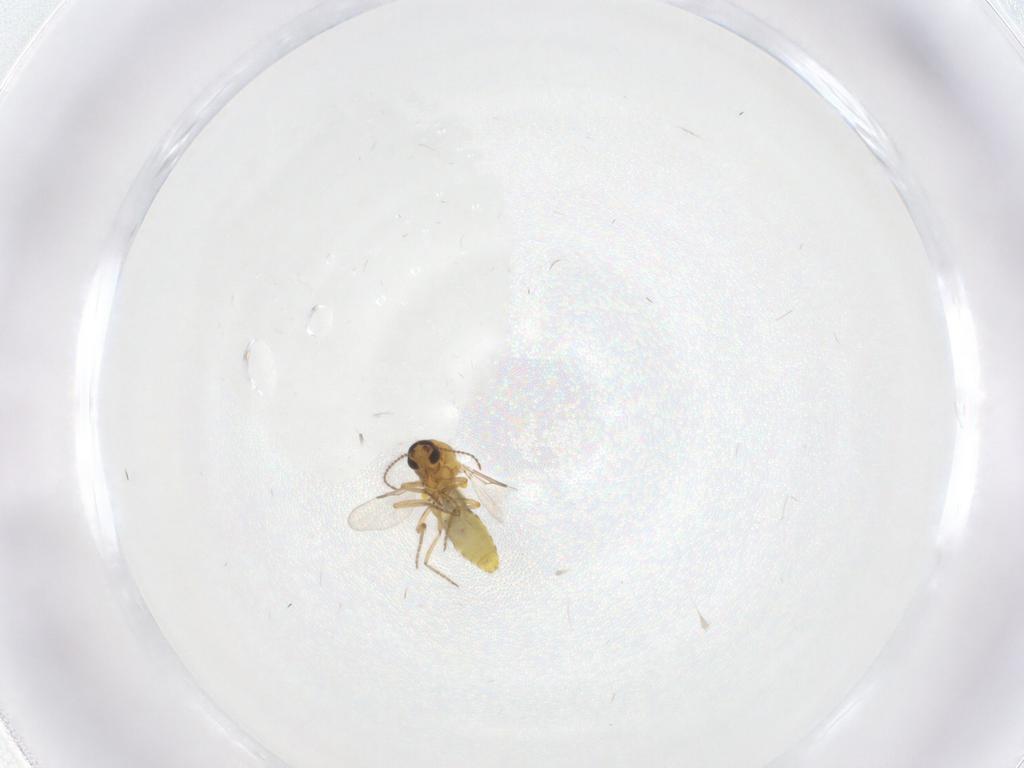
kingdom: Animalia
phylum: Arthropoda
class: Insecta
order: Diptera
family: Ceratopogonidae
